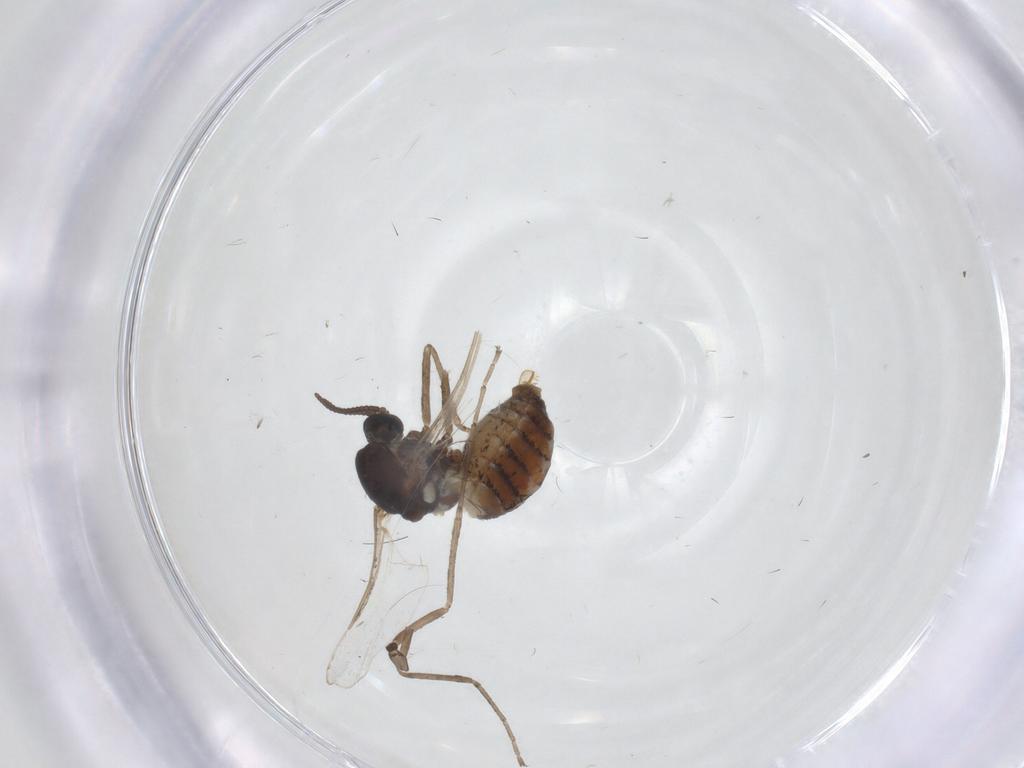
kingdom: Animalia
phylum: Arthropoda
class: Insecta
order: Diptera
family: Cecidomyiidae
